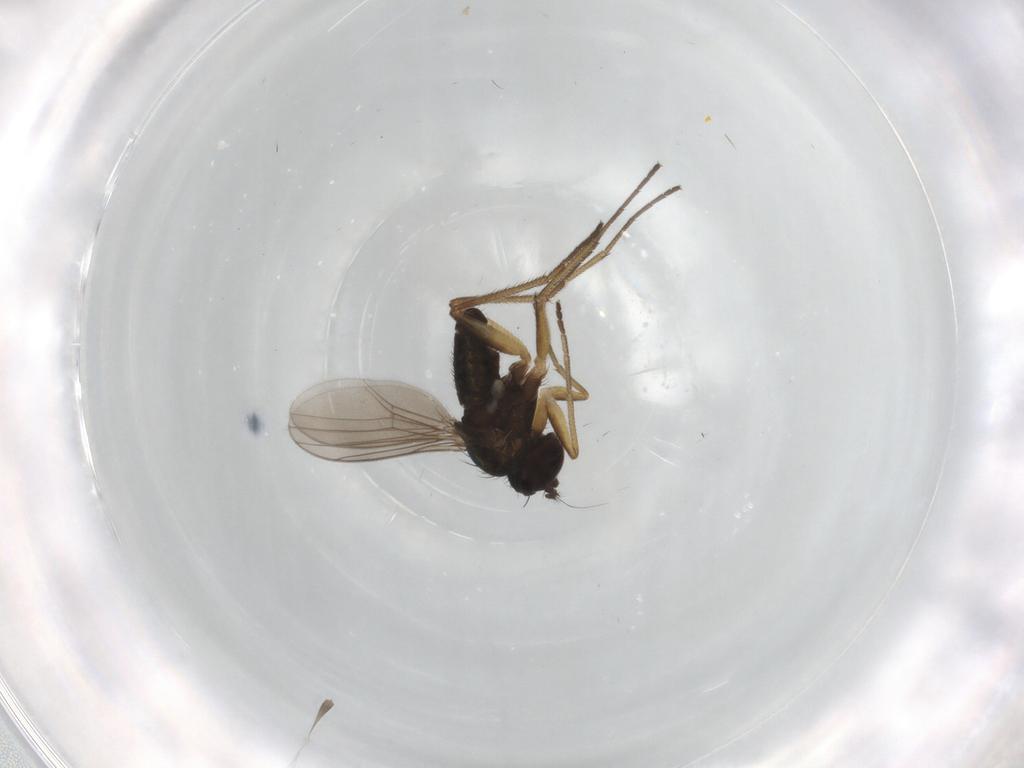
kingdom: Animalia
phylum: Arthropoda
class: Insecta
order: Diptera
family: Dolichopodidae
